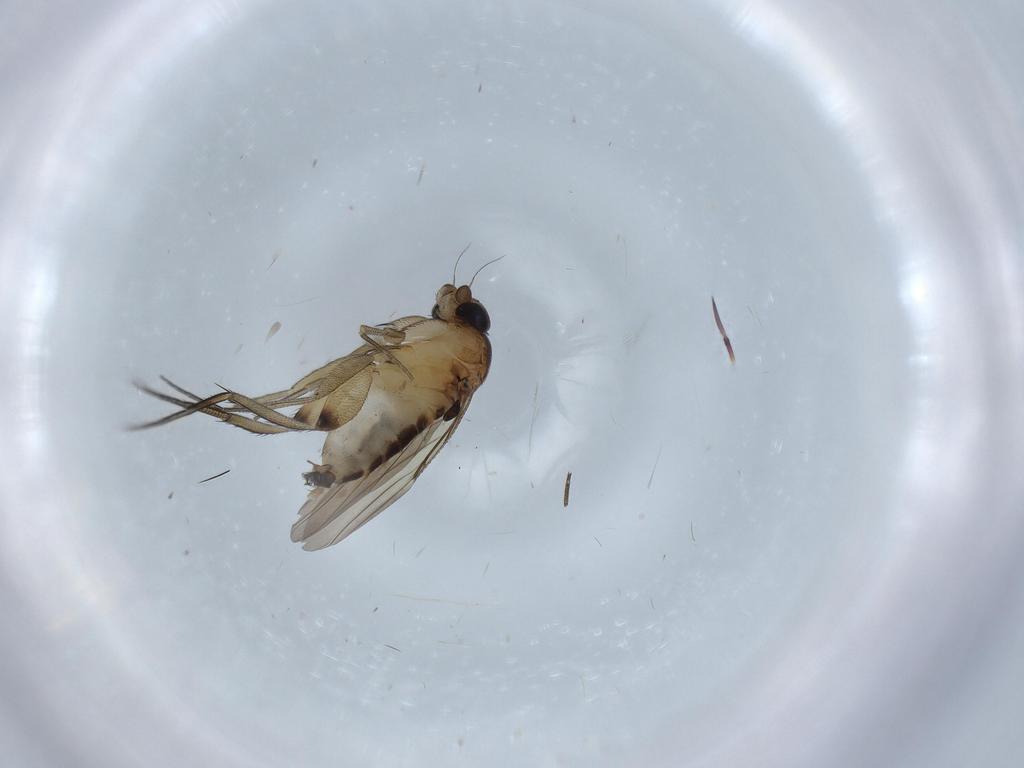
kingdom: Animalia
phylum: Arthropoda
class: Insecta
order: Diptera
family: Phoridae
